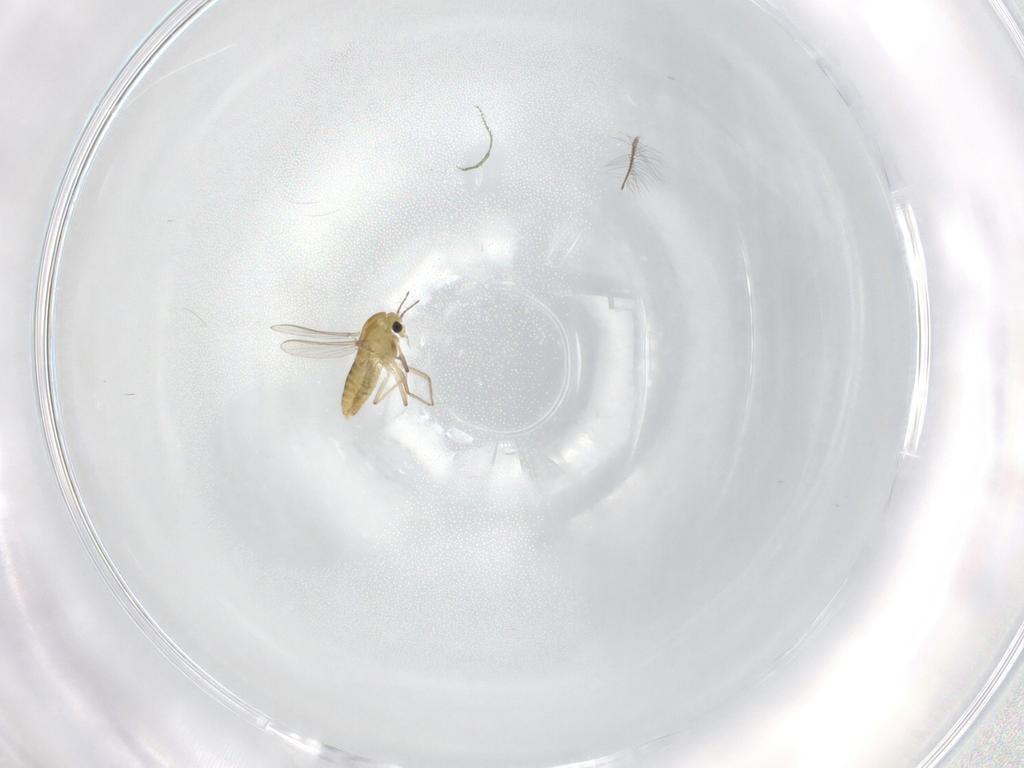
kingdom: Animalia
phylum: Arthropoda
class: Insecta
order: Diptera
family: Chironomidae
